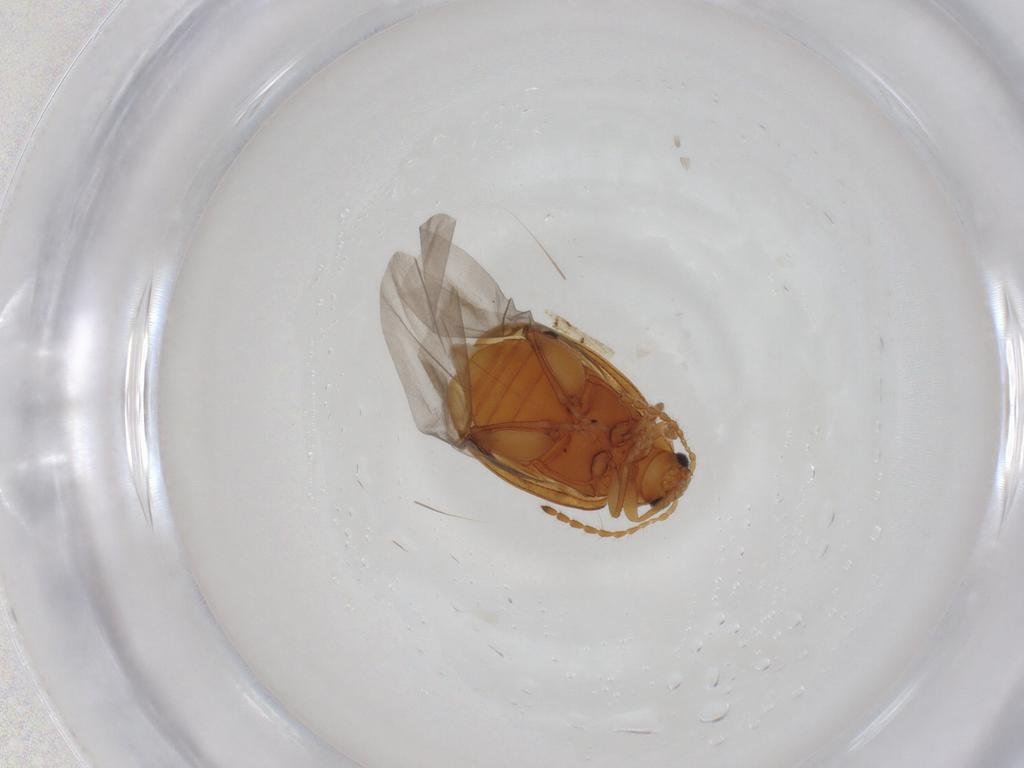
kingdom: Animalia
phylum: Arthropoda
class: Insecta
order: Coleoptera
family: Chrysomelidae
